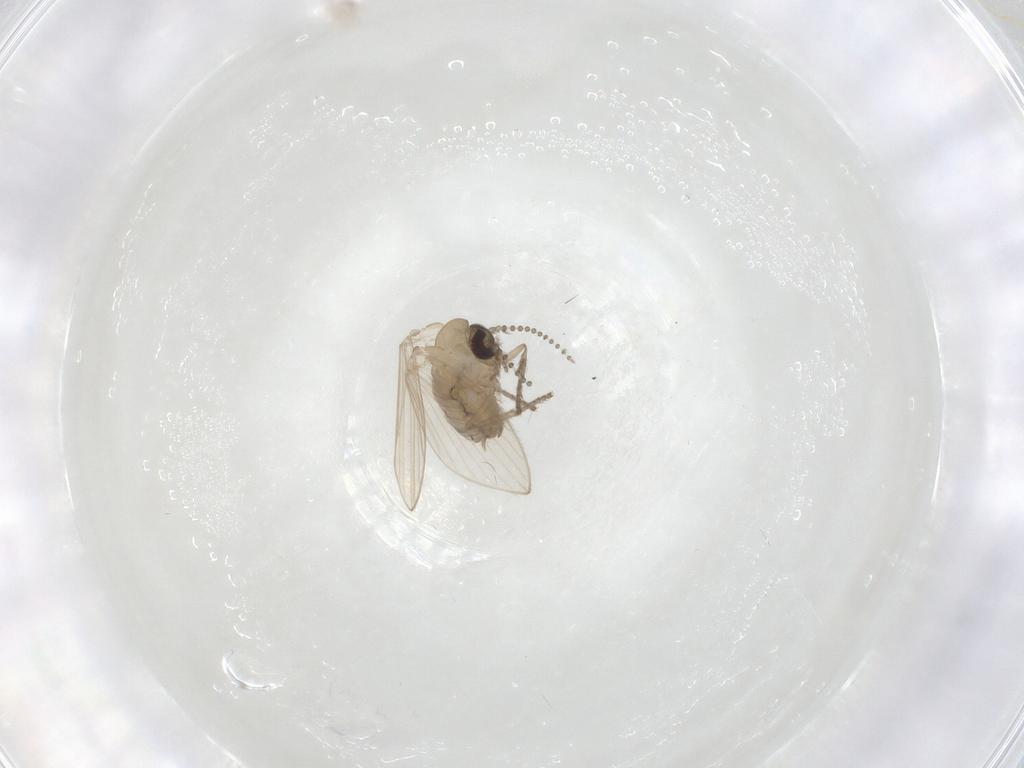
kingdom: Animalia
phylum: Arthropoda
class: Insecta
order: Diptera
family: Psychodidae
